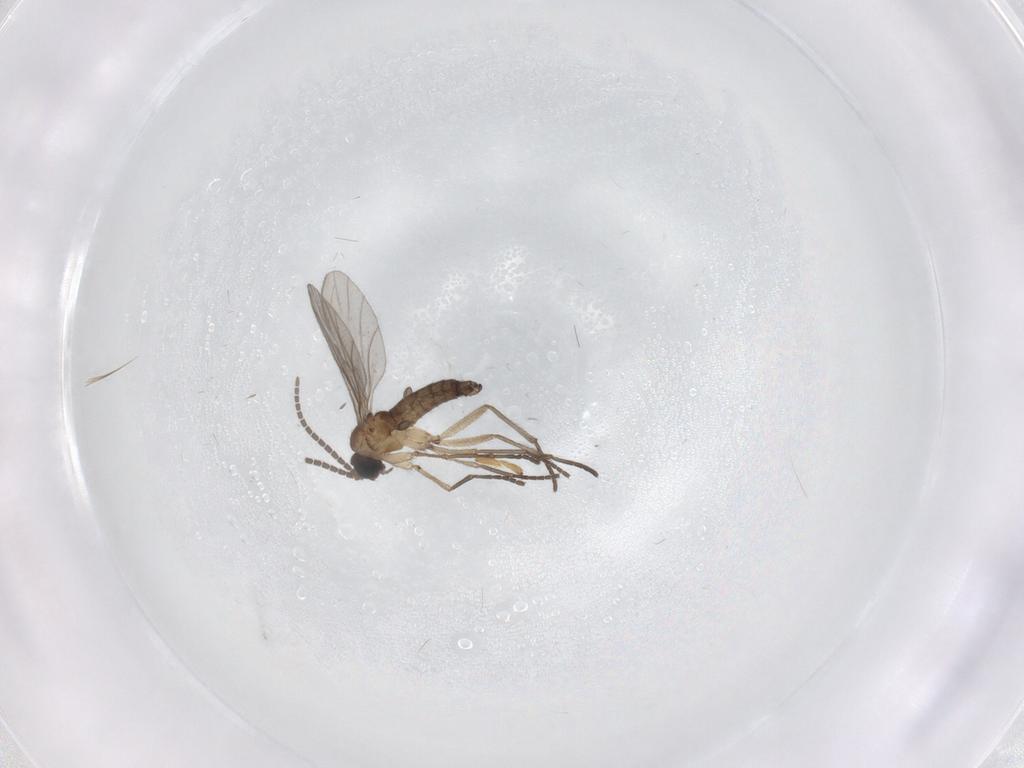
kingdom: Animalia
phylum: Arthropoda
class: Insecta
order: Diptera
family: Sciaridae
